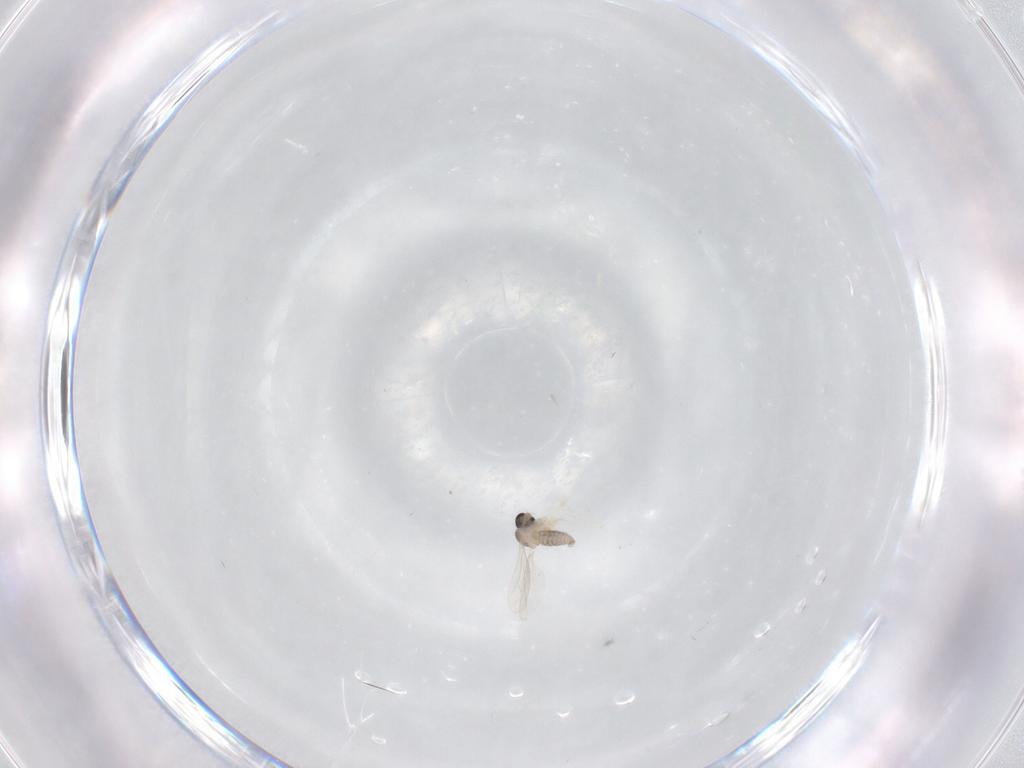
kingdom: Animalia
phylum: Arthropoda
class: Insecta
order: Diptera
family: Cecidomyiidae
